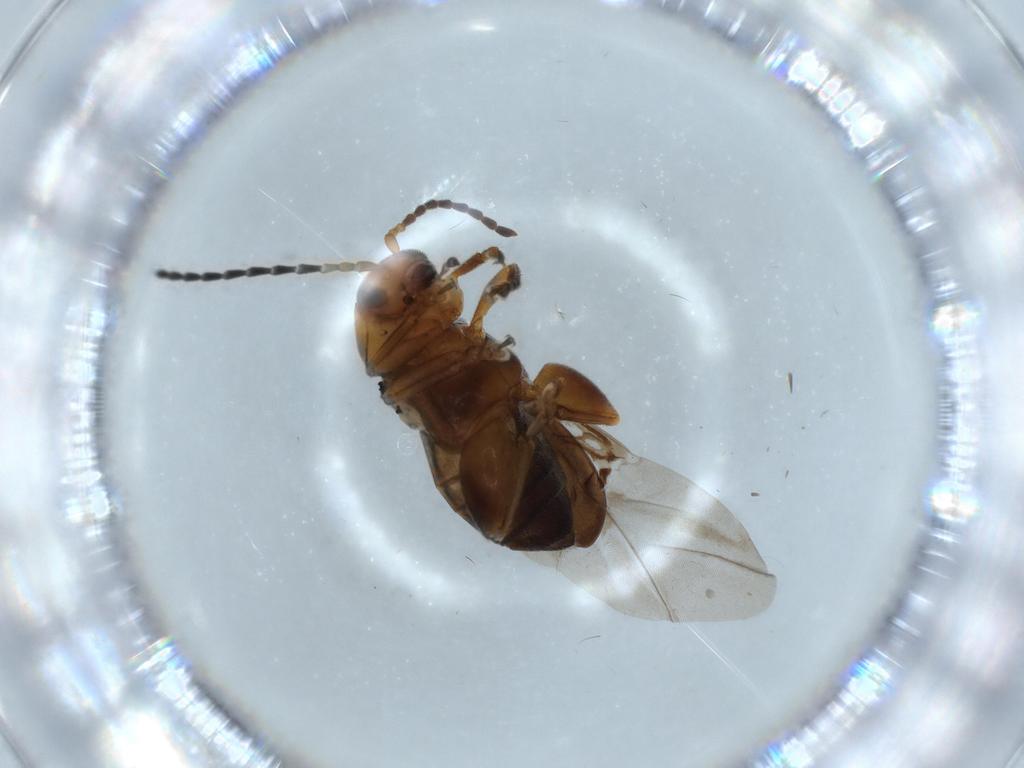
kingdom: Animalia
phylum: Arthropoda
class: Insecta
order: Coleoptera
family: Chrysomelidae
